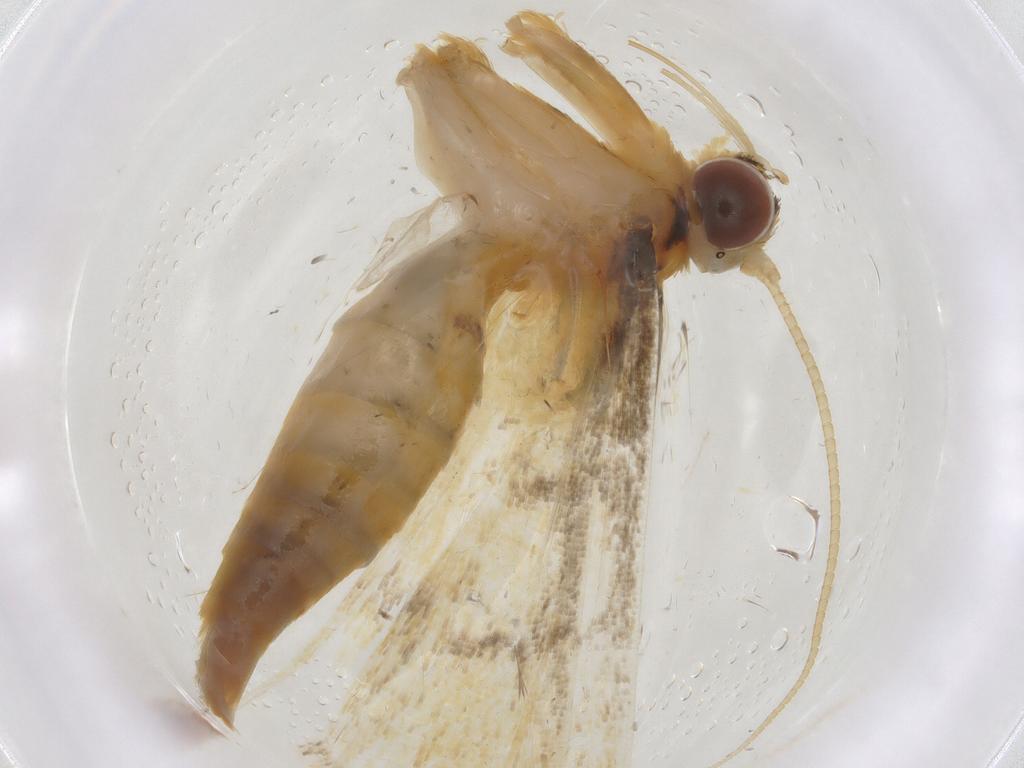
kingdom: Animalia
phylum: Arthropoda
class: Insecta
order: Lepidoptera
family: Crambidae
